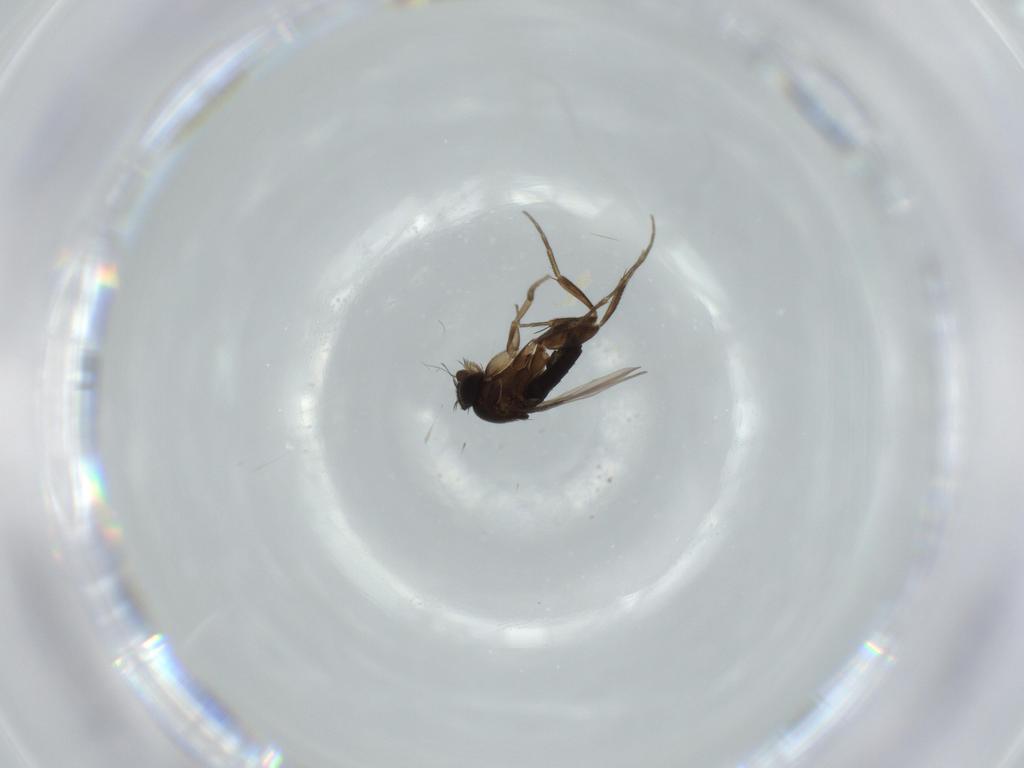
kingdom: Animalia
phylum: Arthropoda
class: Insecta
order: Diptera
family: Phoridae
